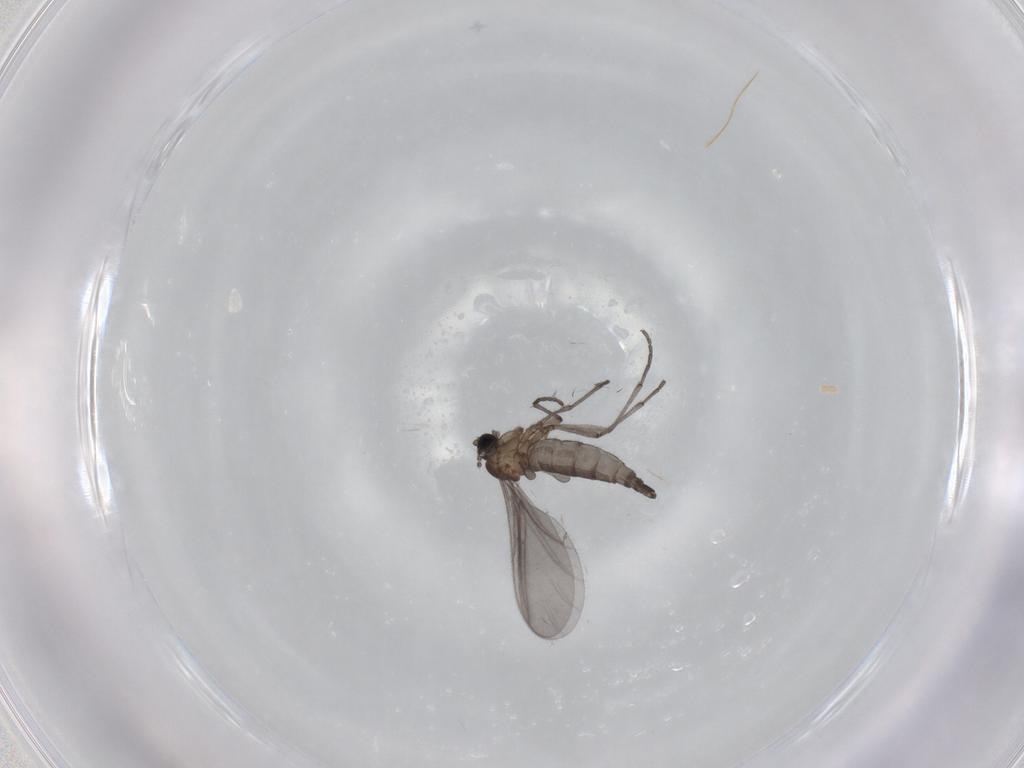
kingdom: Animalia
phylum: Arthropoda
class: Insecta
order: Diptera
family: Sciaridae
